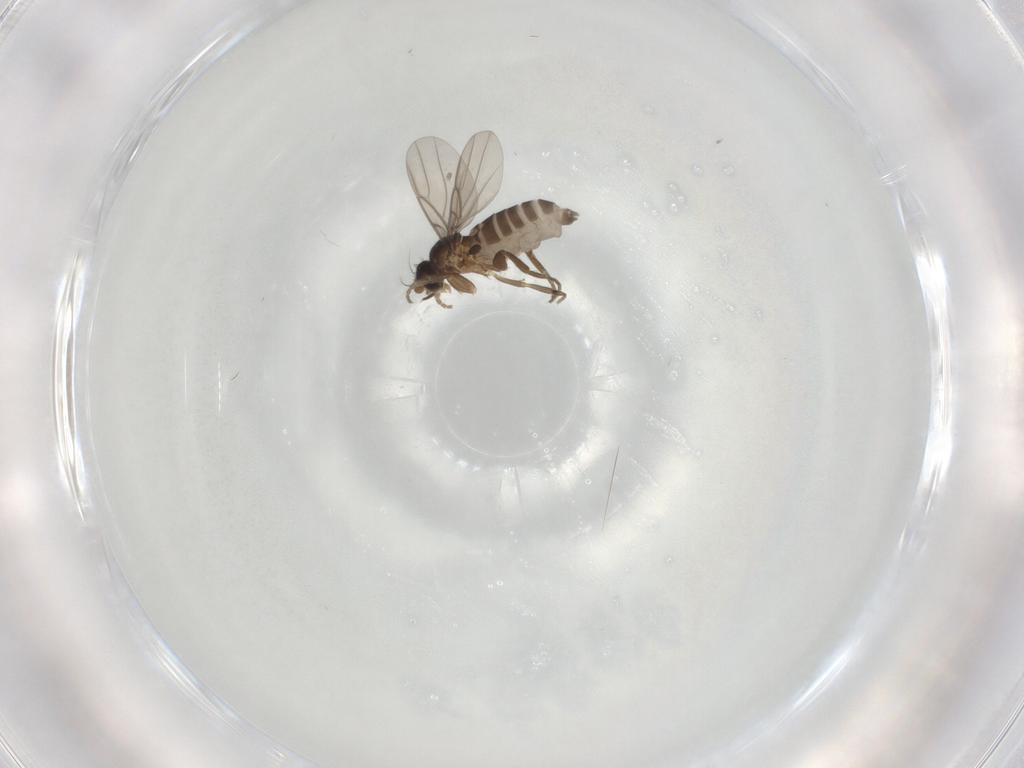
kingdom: Animalia
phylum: Arthropoda
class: Insecta
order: Diptera
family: Phoridae
